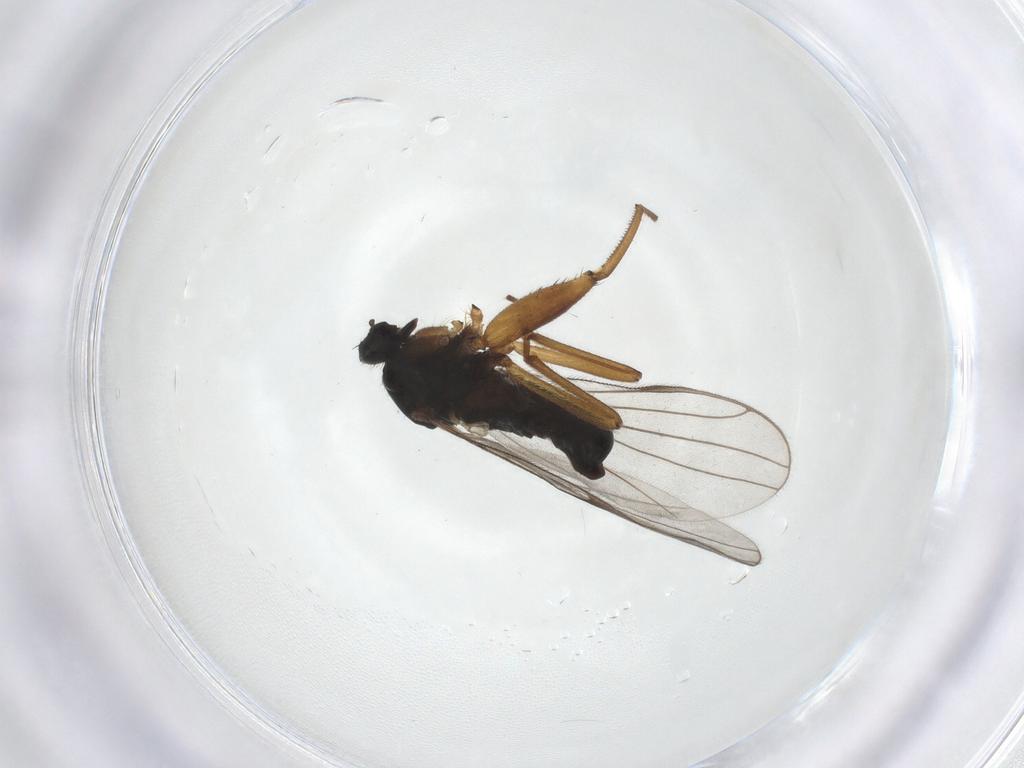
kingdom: Animalia
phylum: Arthropoda
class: Insecta
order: Diptera
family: Hybotidae
